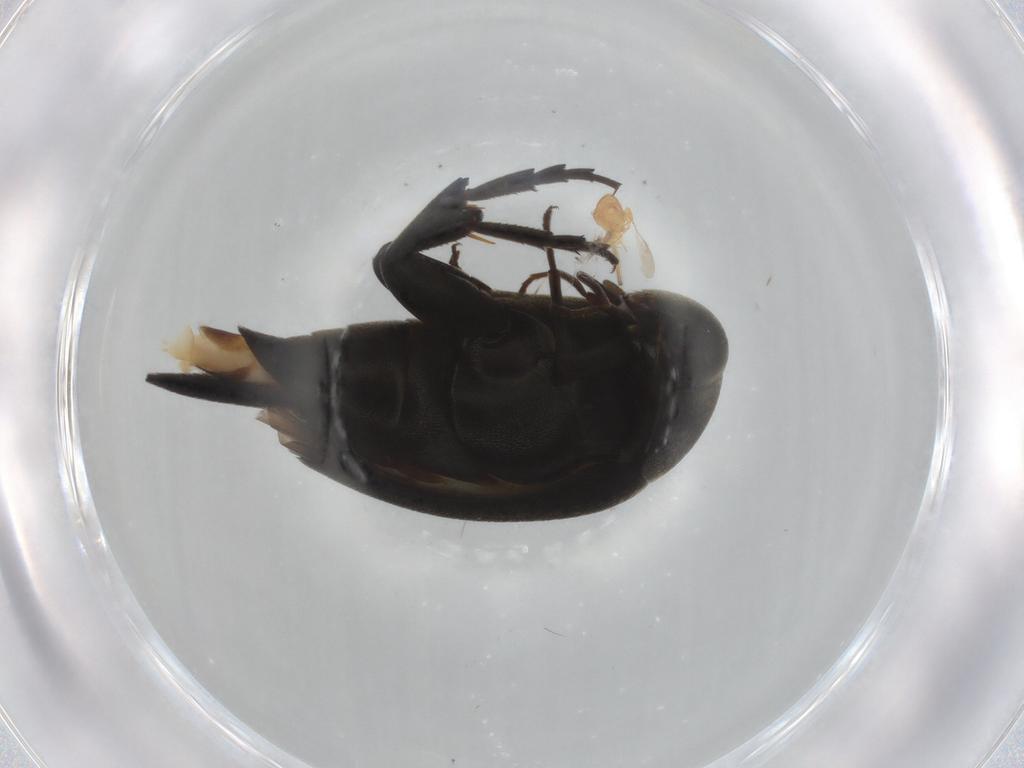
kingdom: Animalia
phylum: Arthropoda
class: Insecta
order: Coleoptera
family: Mordellidae
